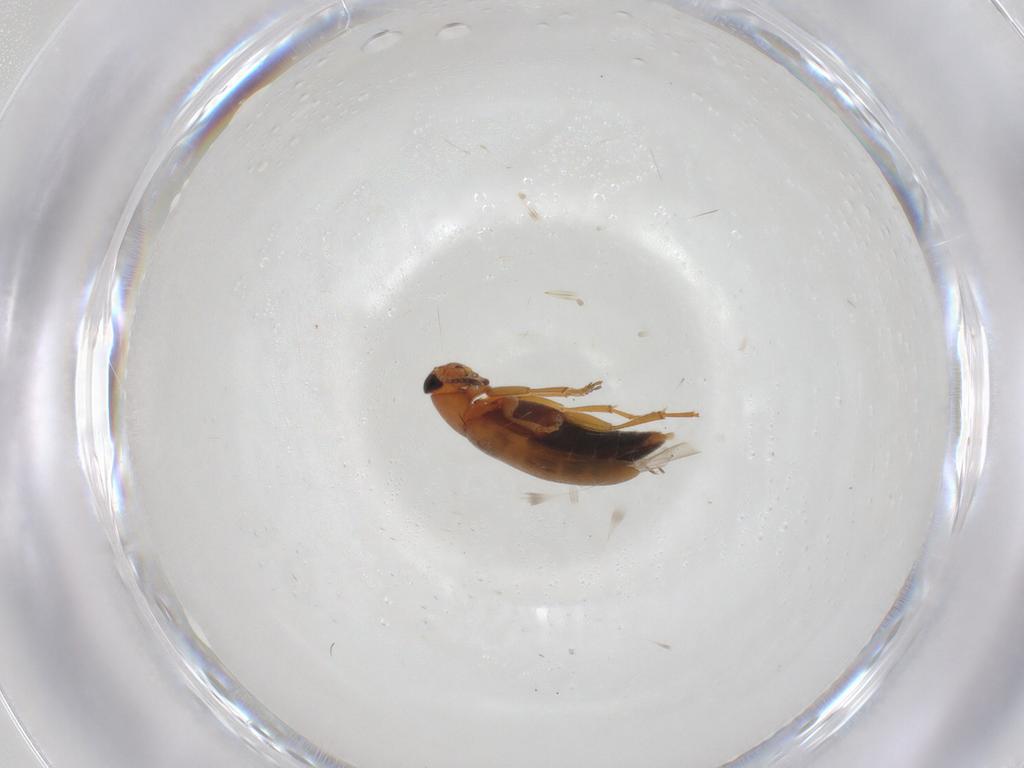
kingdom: Animalia
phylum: Arthropoda
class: Insecta
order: Coleoptera
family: Scraptiidae
